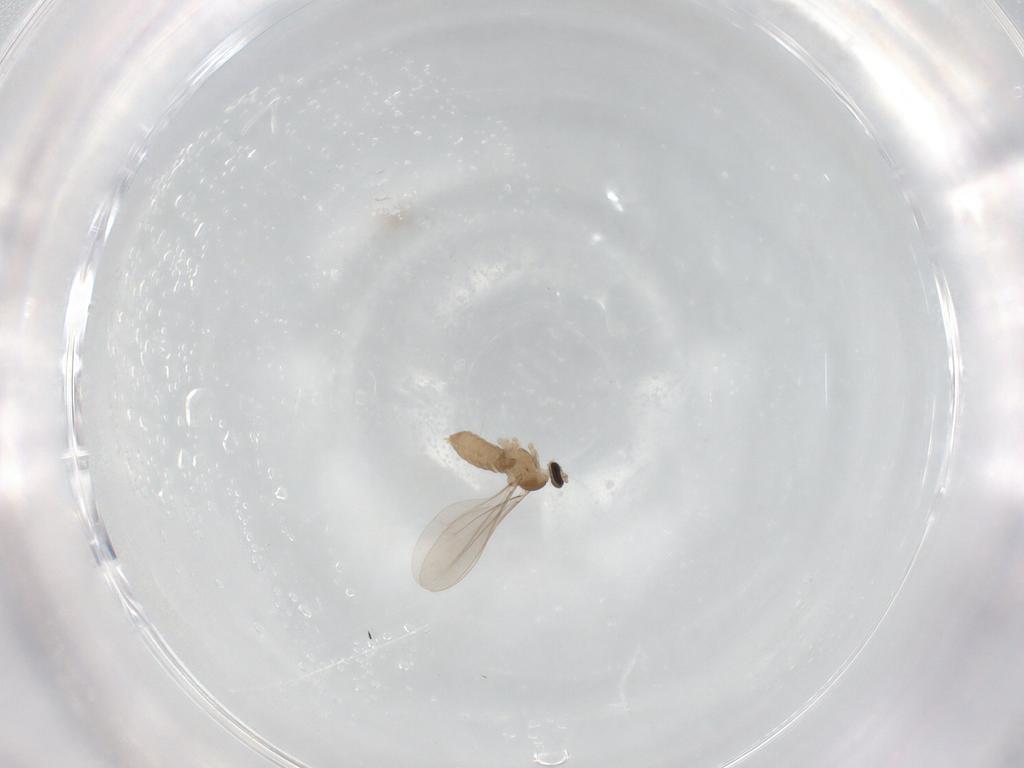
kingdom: Animalia
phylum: Arthropoda
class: Insecta
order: Diptera
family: Cecidomyiidae
